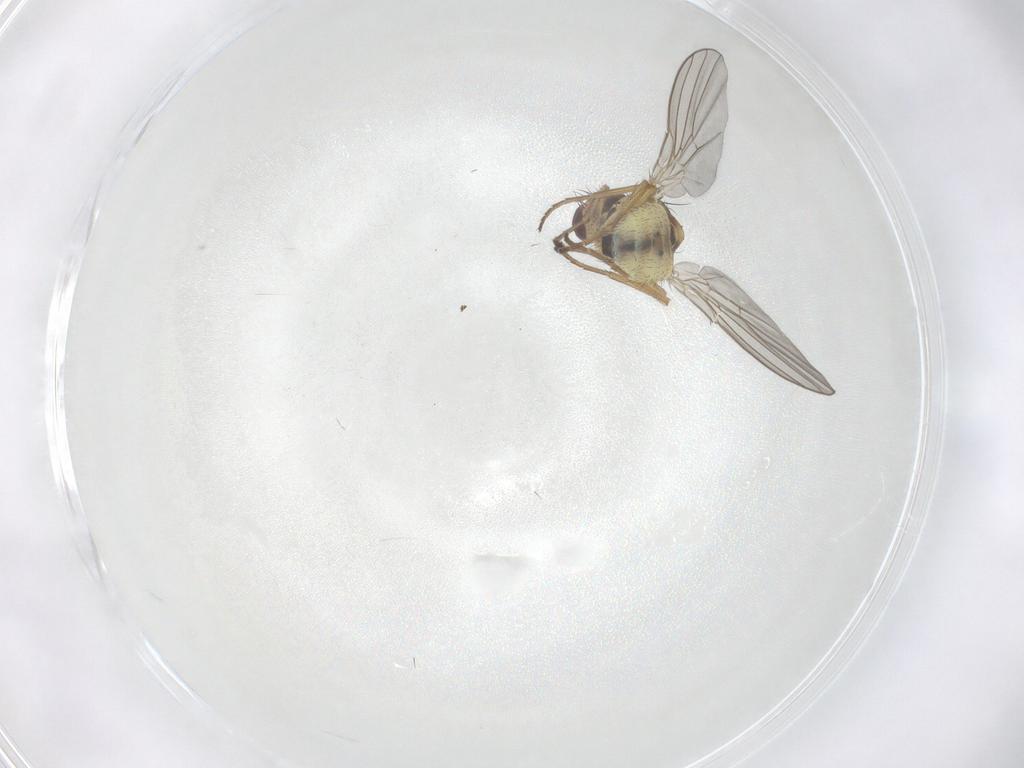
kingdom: Animalia
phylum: Arthropoda
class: Insecta
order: Diptera
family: Agromyzidae
